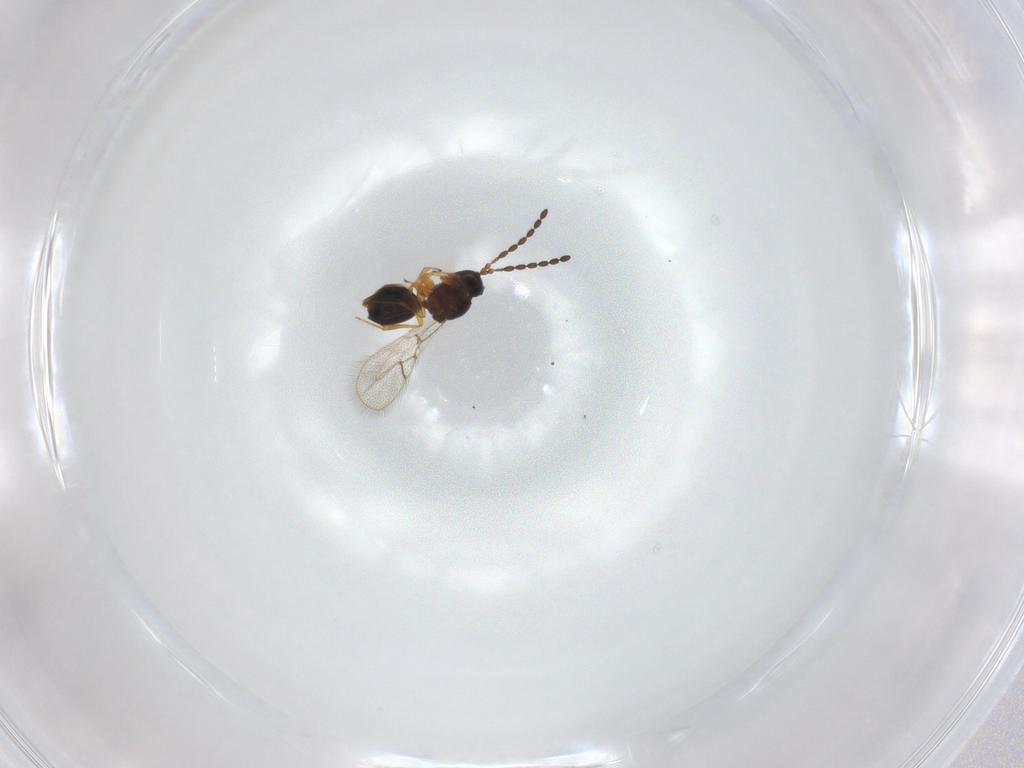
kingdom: Animalia
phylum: Arthropoda
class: Insecta
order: Hymenoptera
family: Figitidae
